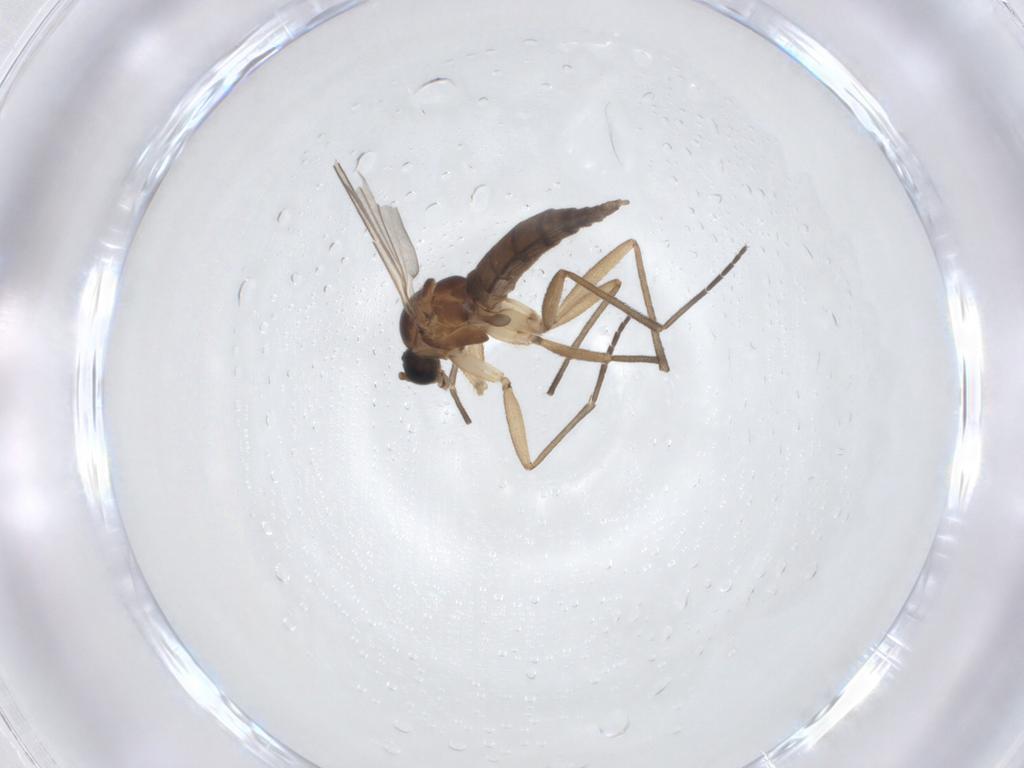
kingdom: Animalia
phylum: Arthropoda
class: Insecta
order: Diptera
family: Sciaridae
